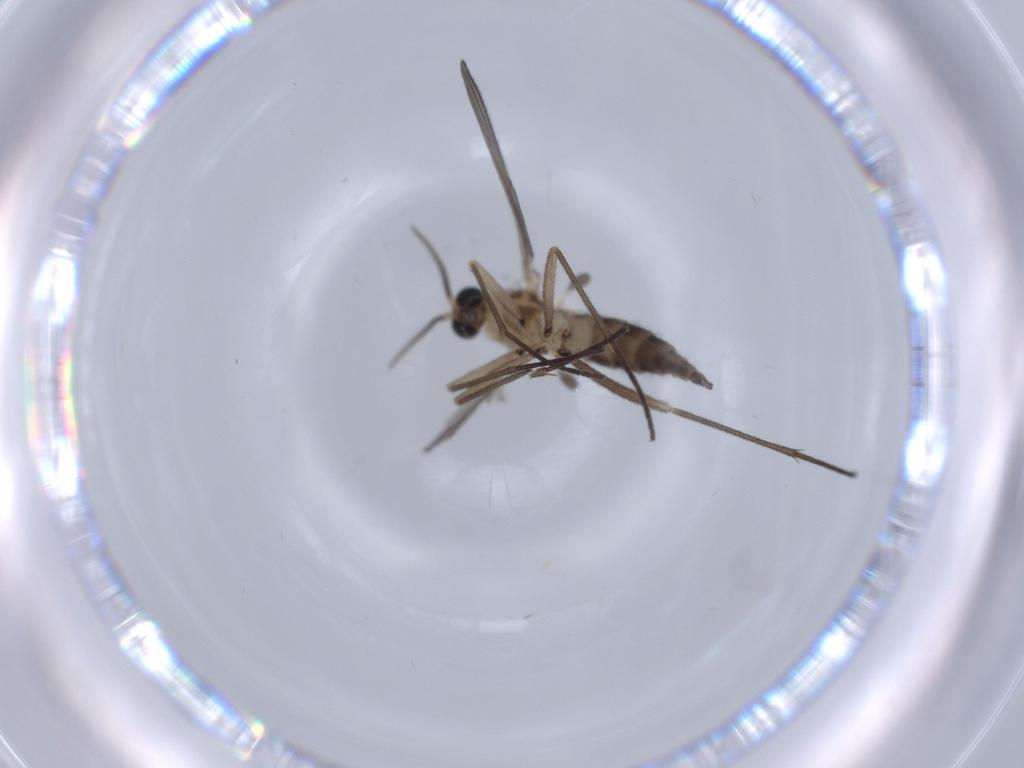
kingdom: Animalia
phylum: Arthropoda
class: Insecta
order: Diptera
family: Sciaridae
